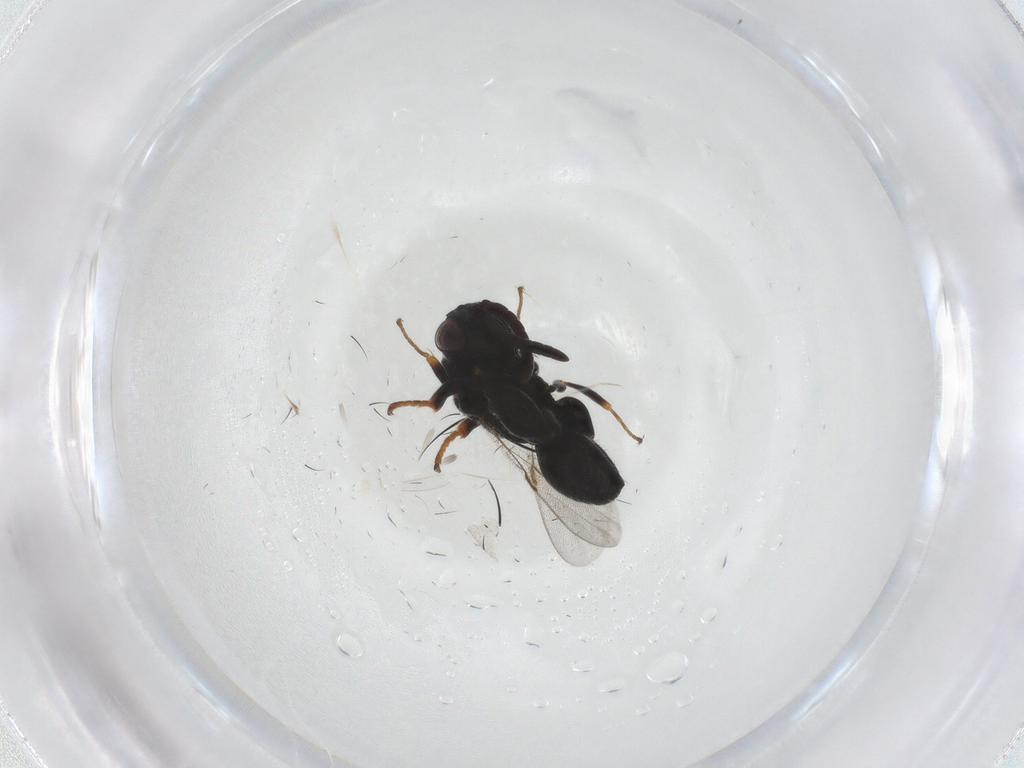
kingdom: Animalia
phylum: Arthropoda
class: Insecta
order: Hymenoptera
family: Chalcididae
